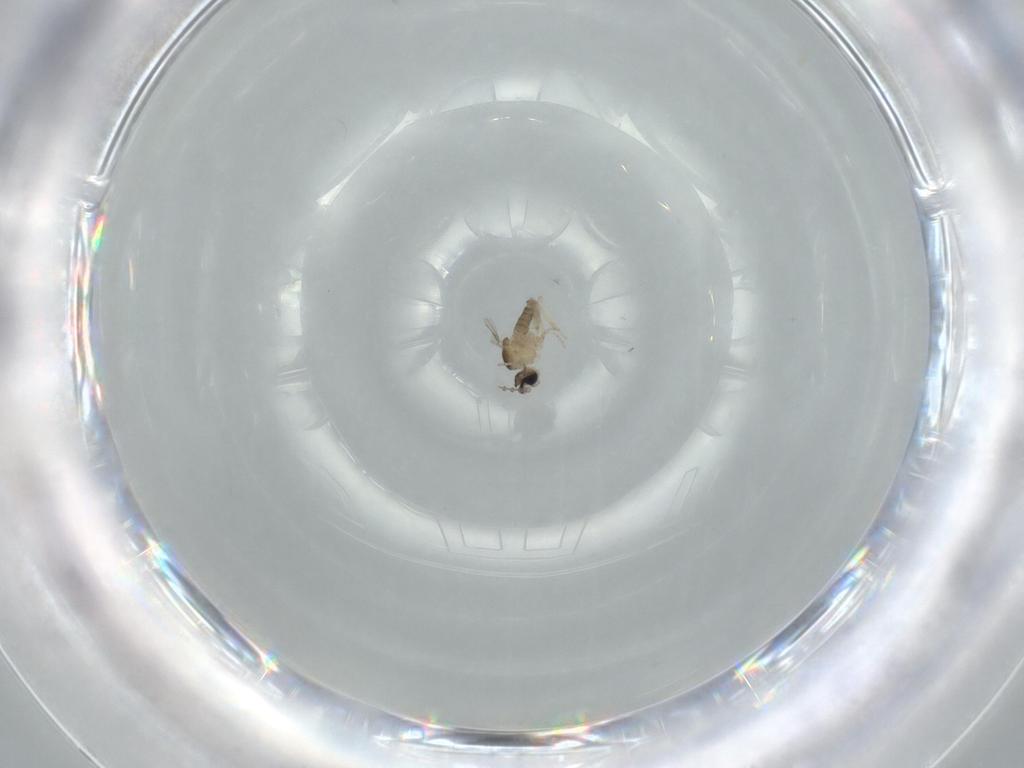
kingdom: Animalia
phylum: Arthropoda
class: Insecta
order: Diptera
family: Cecidomyiidae
